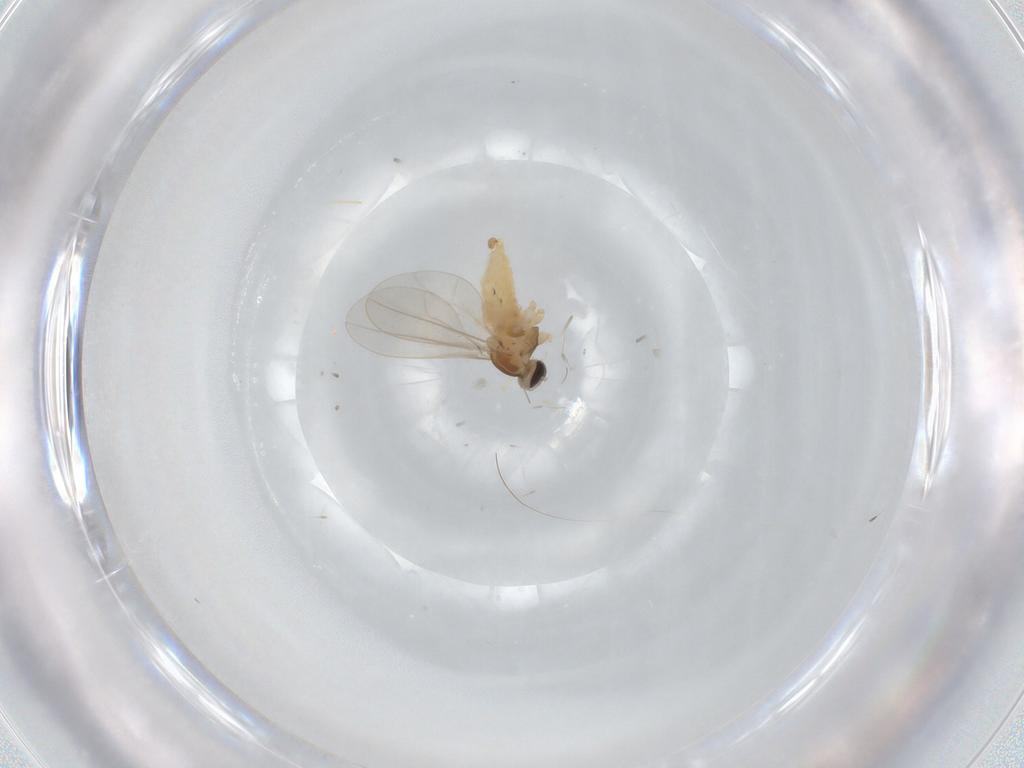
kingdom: Animalia
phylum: Arthropoda
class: Insecta
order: Diptera
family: Cecidomyiidae
